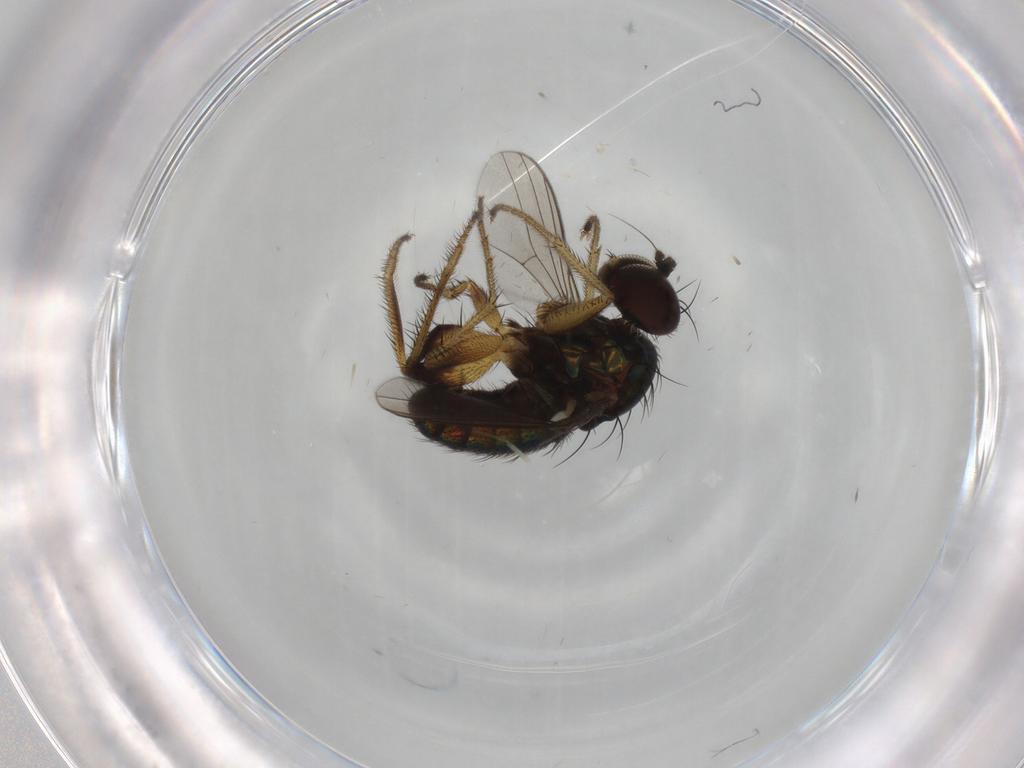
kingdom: Animalia
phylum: Arthropoda
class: Insecta
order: Diptera
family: Dolichopodidae
